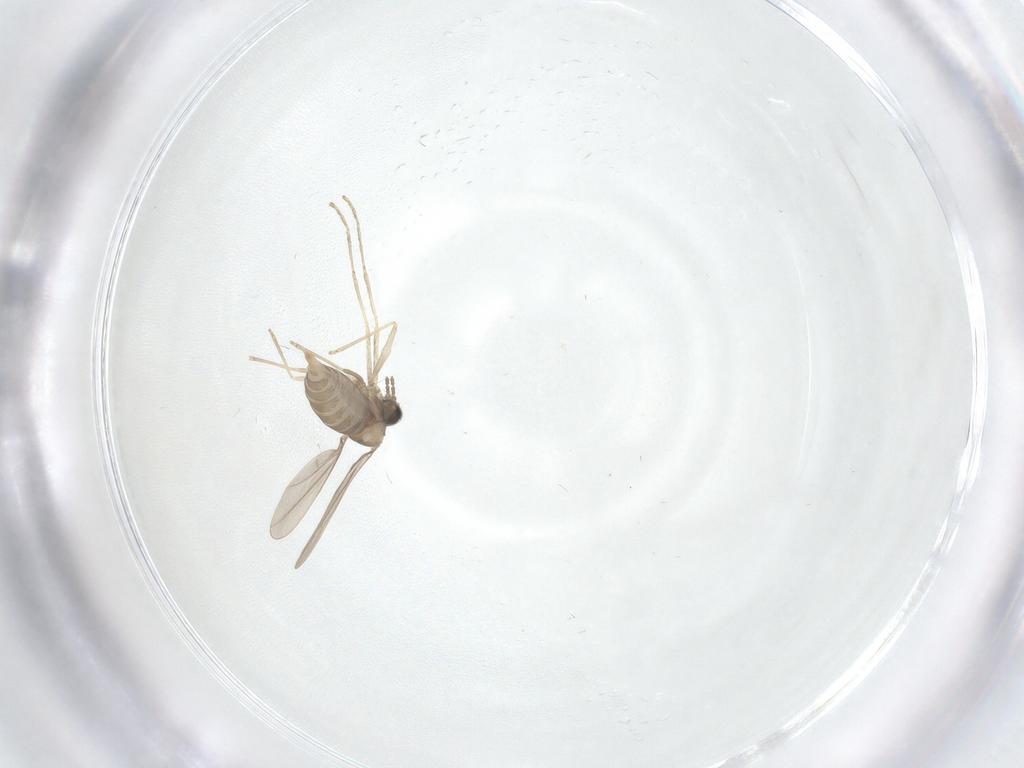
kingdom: Animalia
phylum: Arthropoda
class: Insecta
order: Diptera
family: Cecidomyiidae
